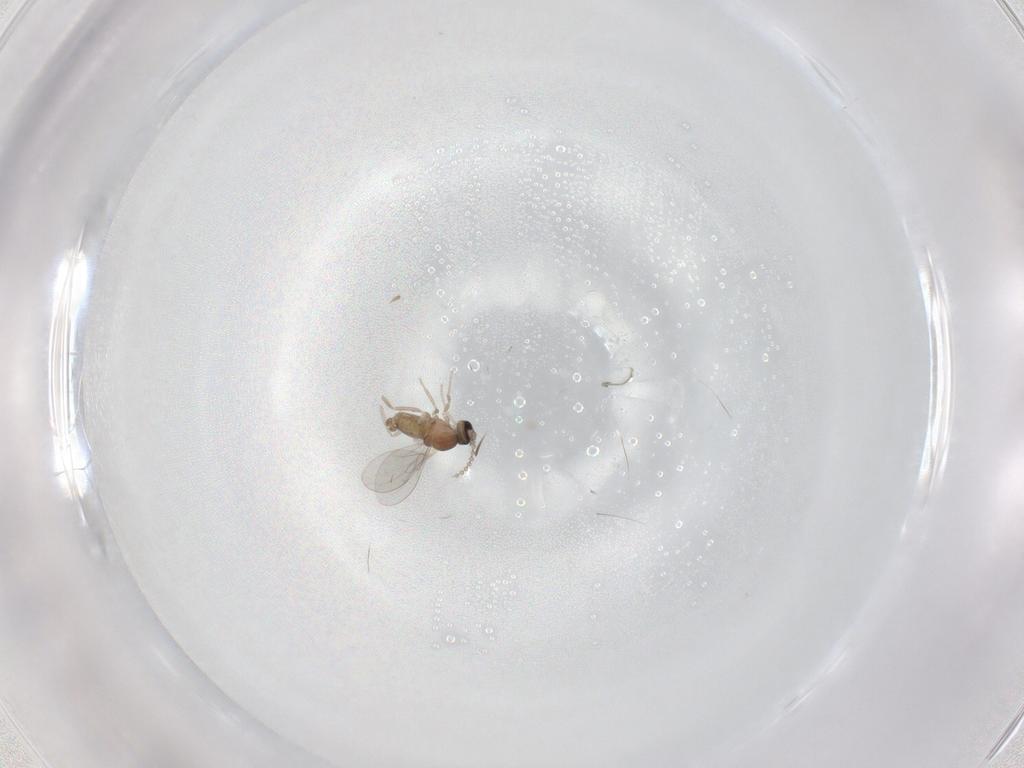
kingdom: Animalia
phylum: Arthropoda
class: Insecta
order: Diptera
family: Cecidomyiidae
